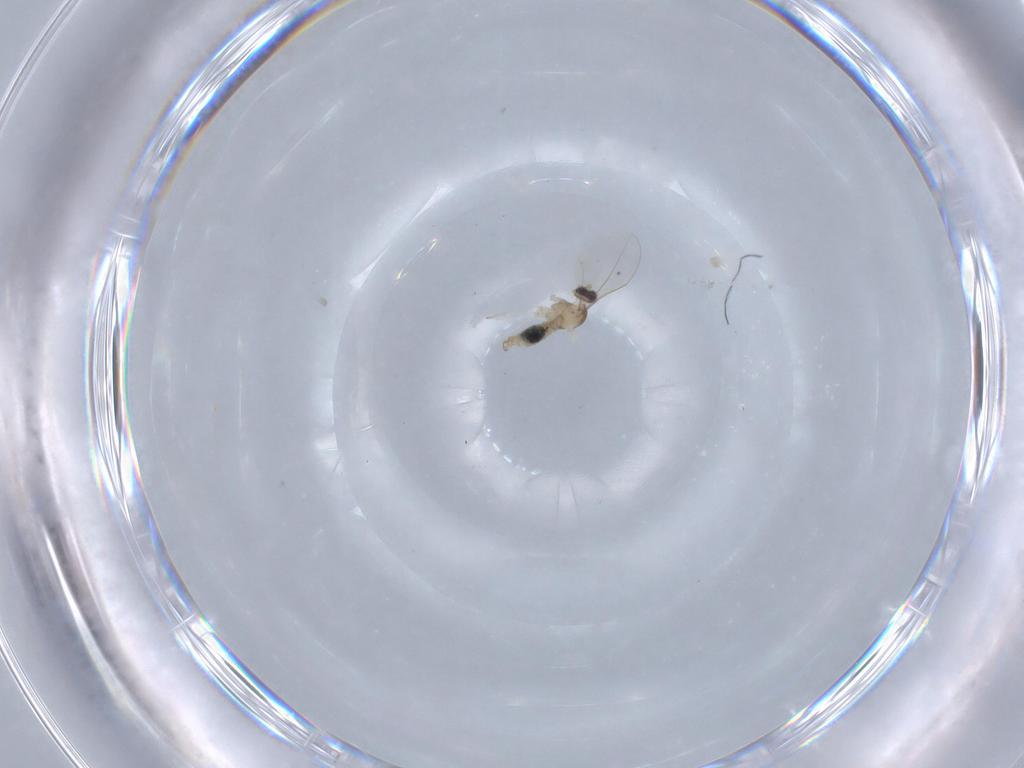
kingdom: Animalia
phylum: Arthropoda
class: Insecta
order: Diptera
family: Cecidomyiidae
